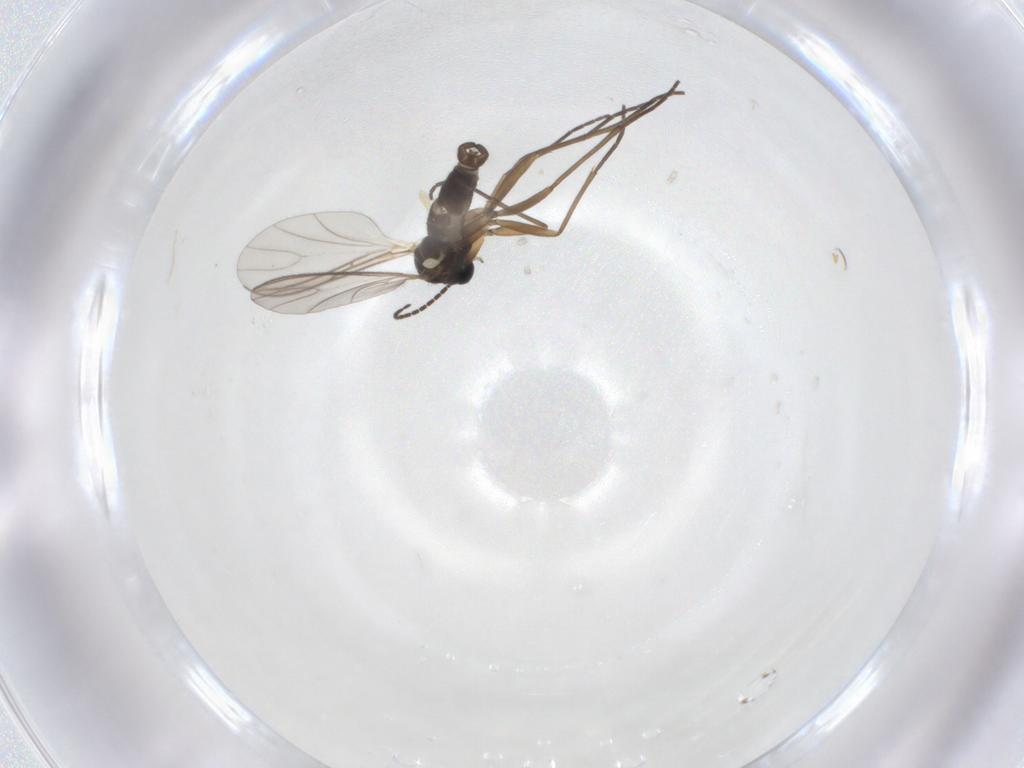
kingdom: Animalia
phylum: Arthropoda
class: Insecta
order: Diptera
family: Sciaridae
